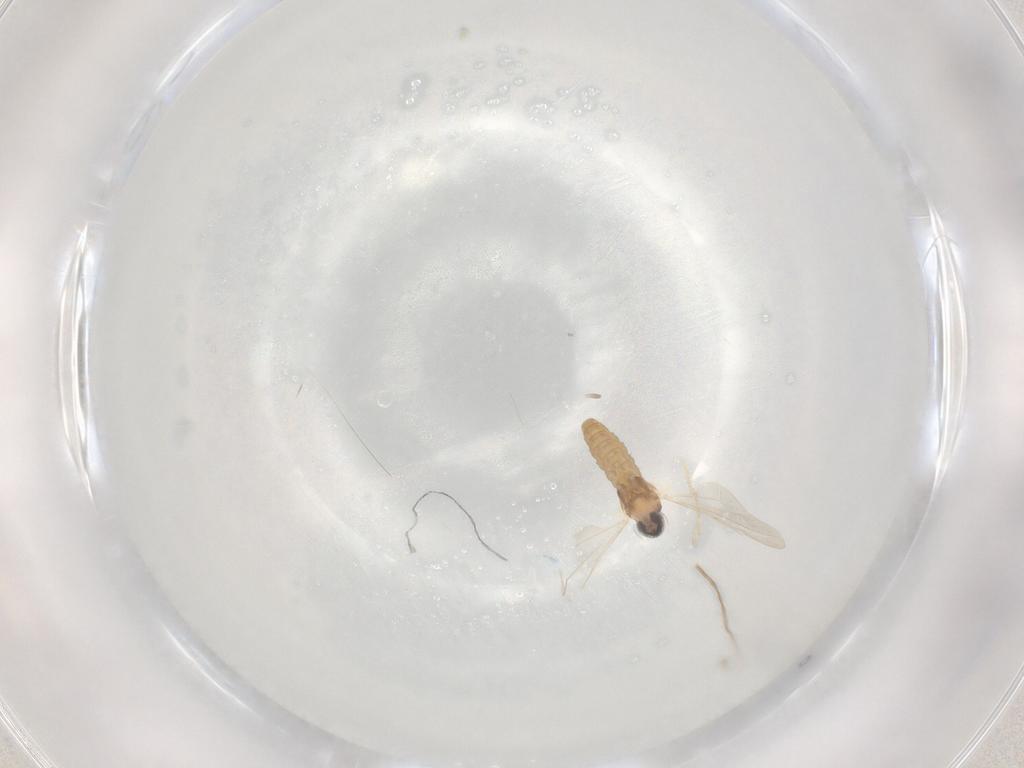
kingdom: Animalia
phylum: Arthropoda
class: Insecta
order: Diptera
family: Cecidomyiidae
